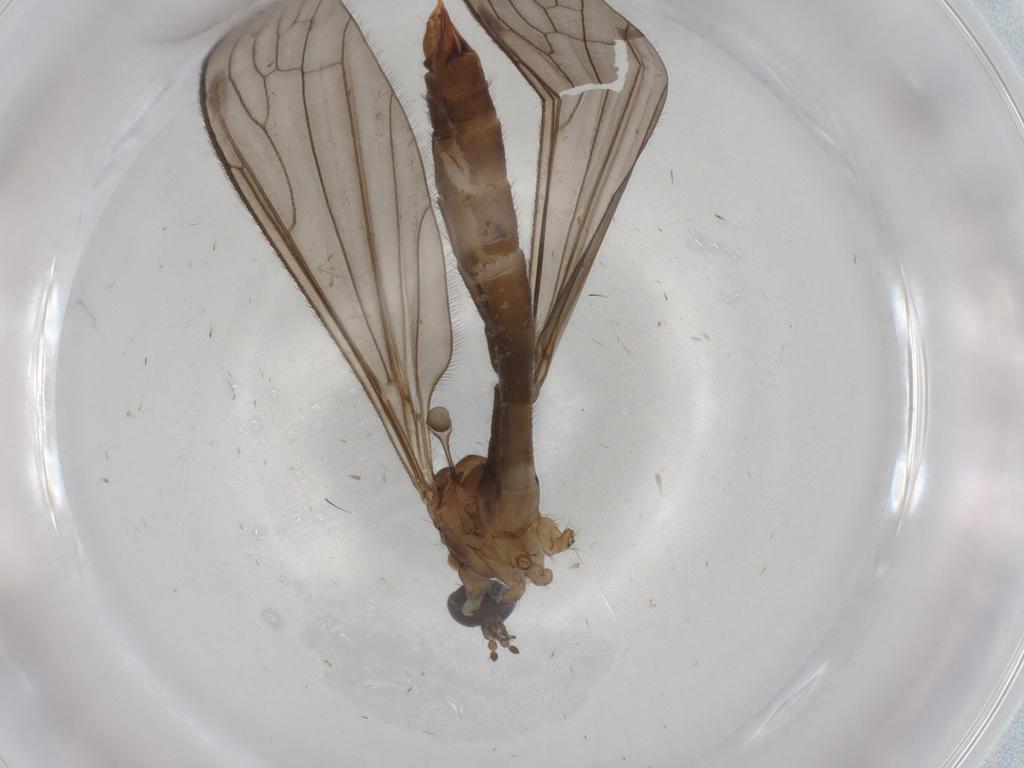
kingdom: Animalia
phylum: Arthropoda
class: Insecta
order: Diptera
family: Limoniidae
